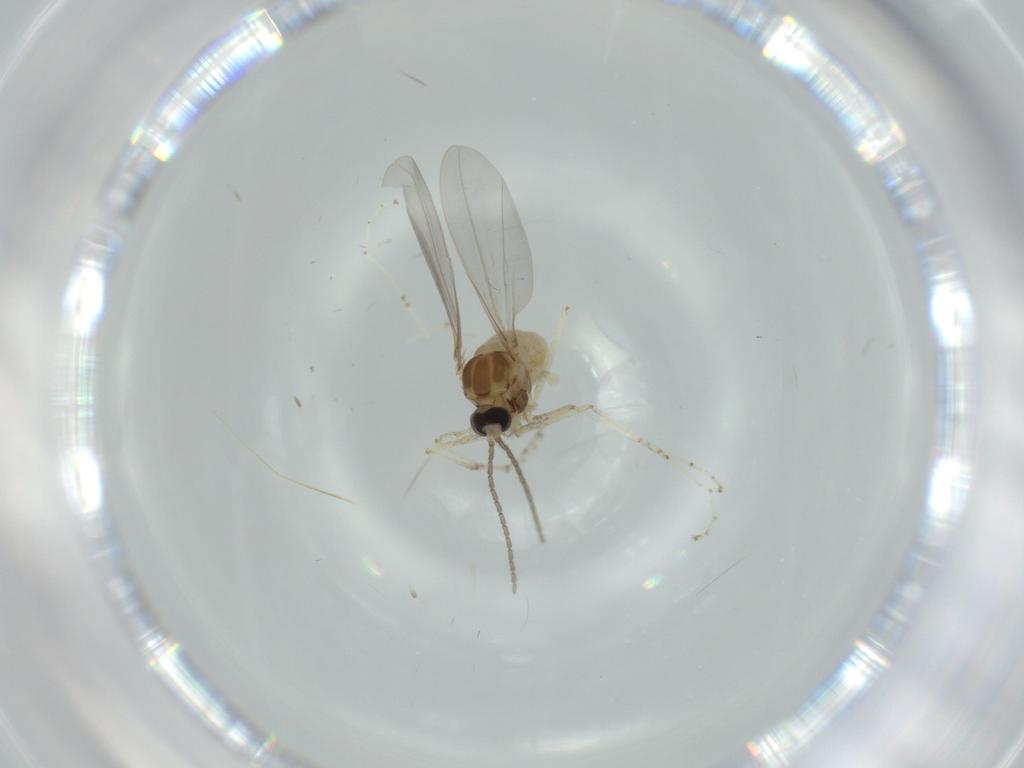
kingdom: Animalia
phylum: Arthropoda
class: Insecta
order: Diptera
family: Cecidomyiidae
